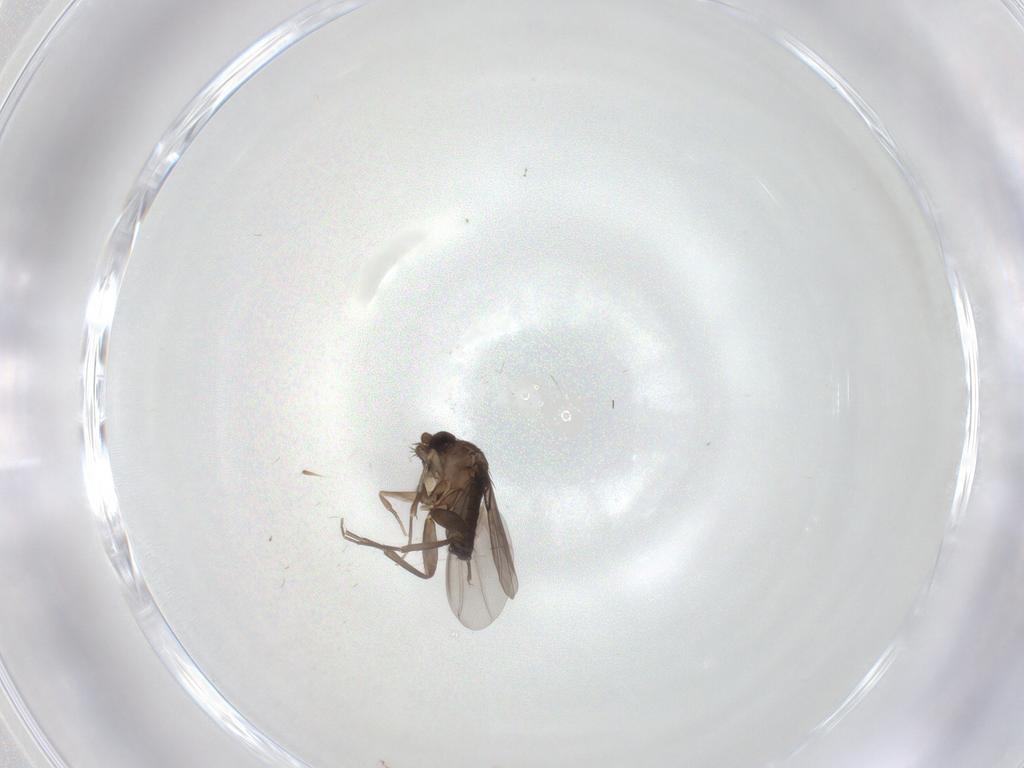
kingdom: Animalia
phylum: Arthropoda
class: Insecta
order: Diptera
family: Phoridae
